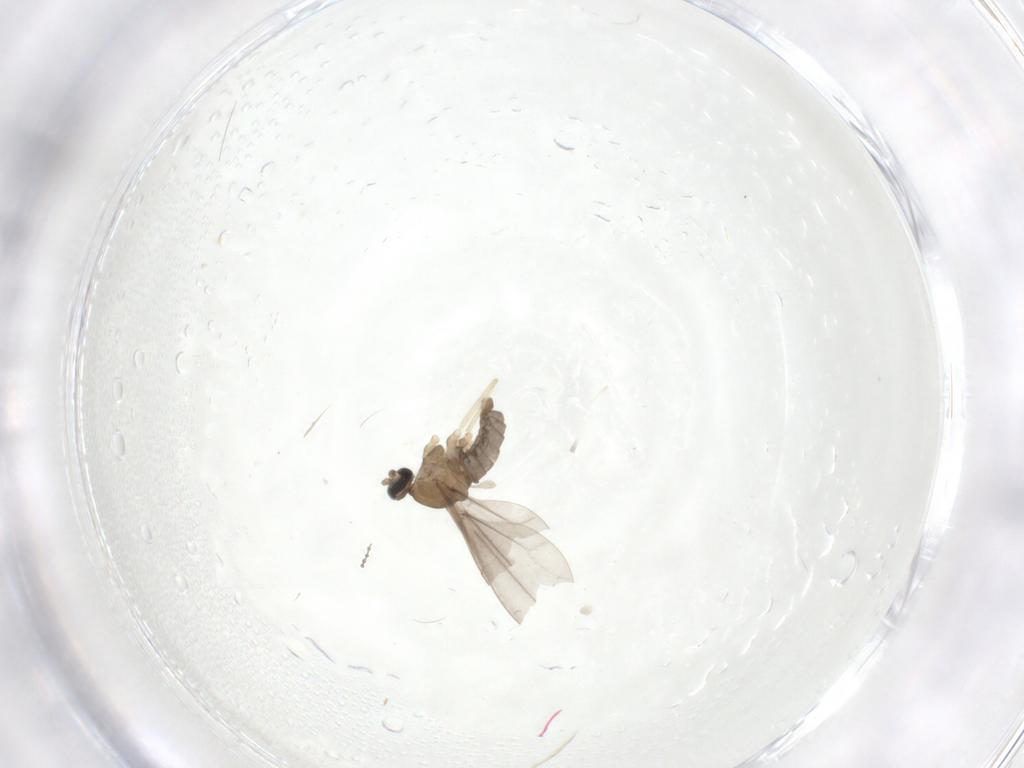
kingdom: Animalia
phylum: Arthropoda
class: Insecta
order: Diptera
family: Cecidomyiidae
